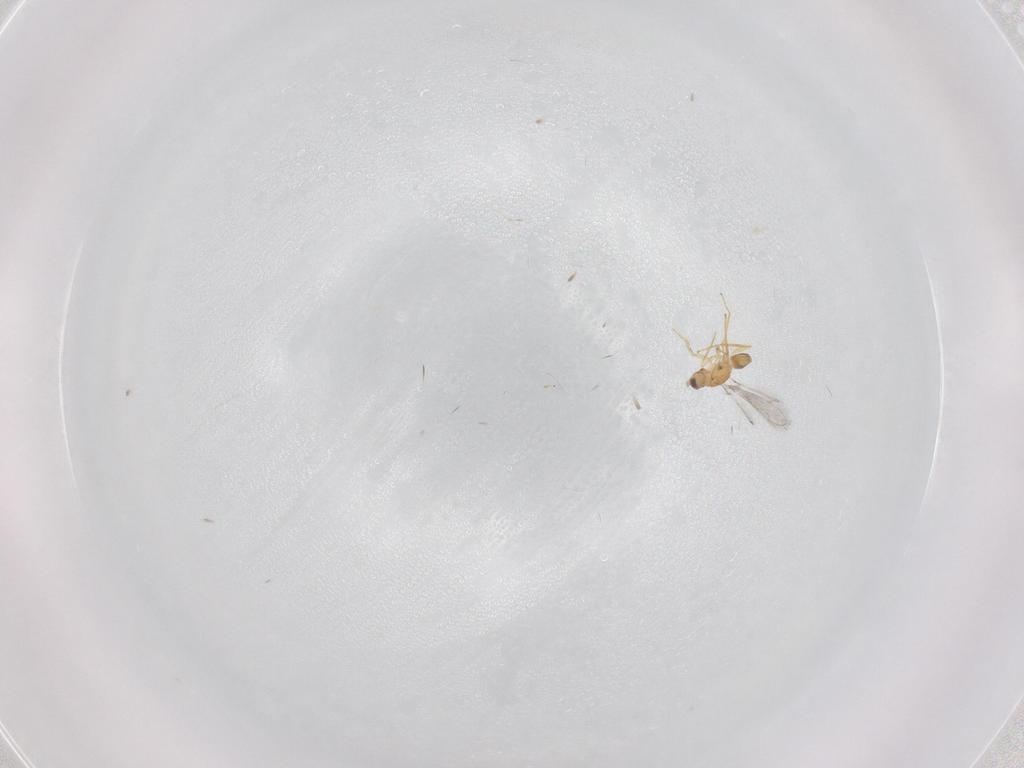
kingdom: Animalia
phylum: Arthropoda
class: Insecta
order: Hymenoptera
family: Mymaridae
